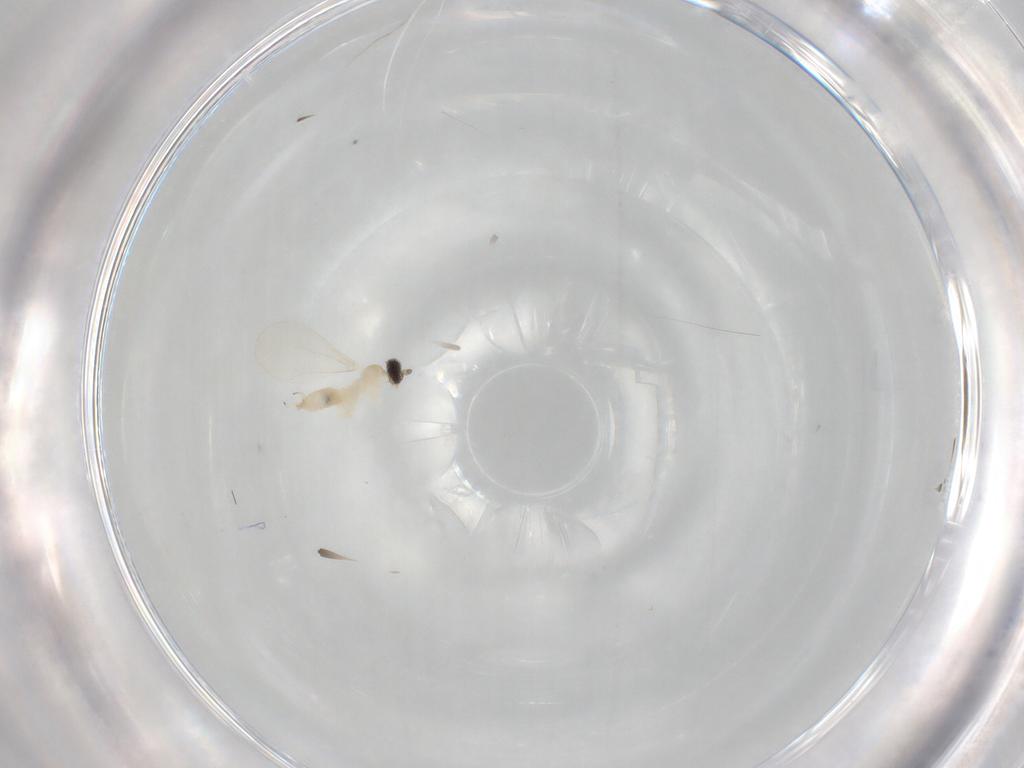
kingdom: Animalia
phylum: Arthropoda
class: Insecta
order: Diptera
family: Cecidomyiidae
